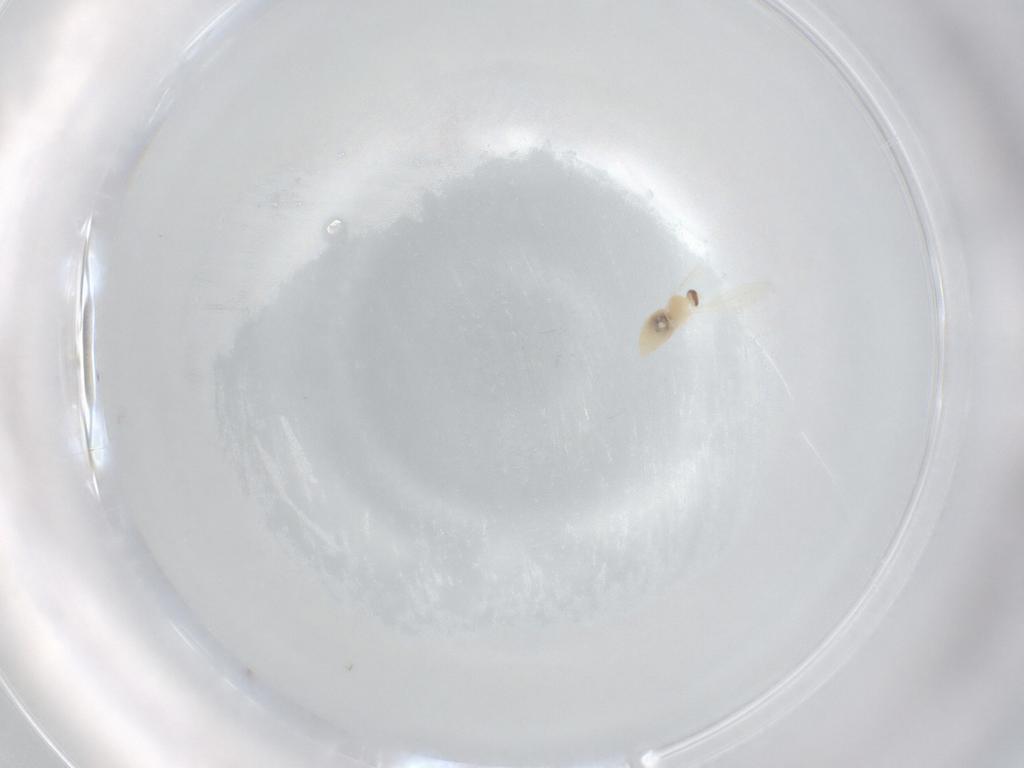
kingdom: Animalia
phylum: Arthropoda
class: Insecta
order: Diptera
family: Cecidomyiidae
